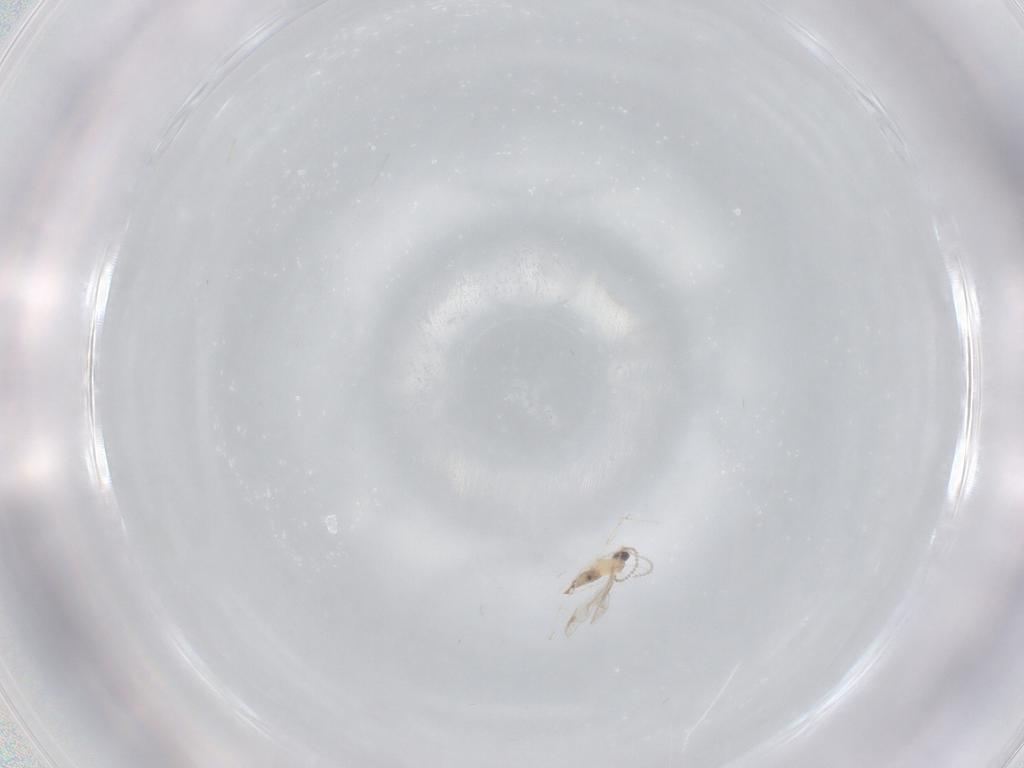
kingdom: Animalia
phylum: Arthropoda
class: Insecta
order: Diptera
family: Cecidomyiidae
